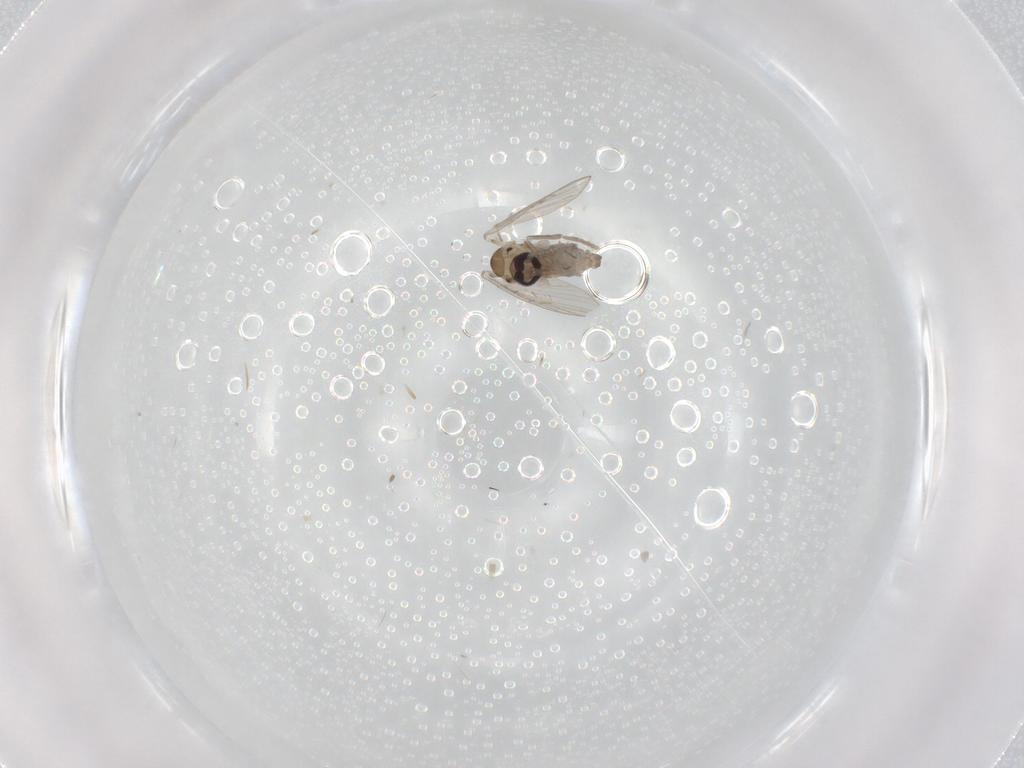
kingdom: Animalia
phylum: Arthropoda
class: Insecta
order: Diptera
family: Psychodidae
